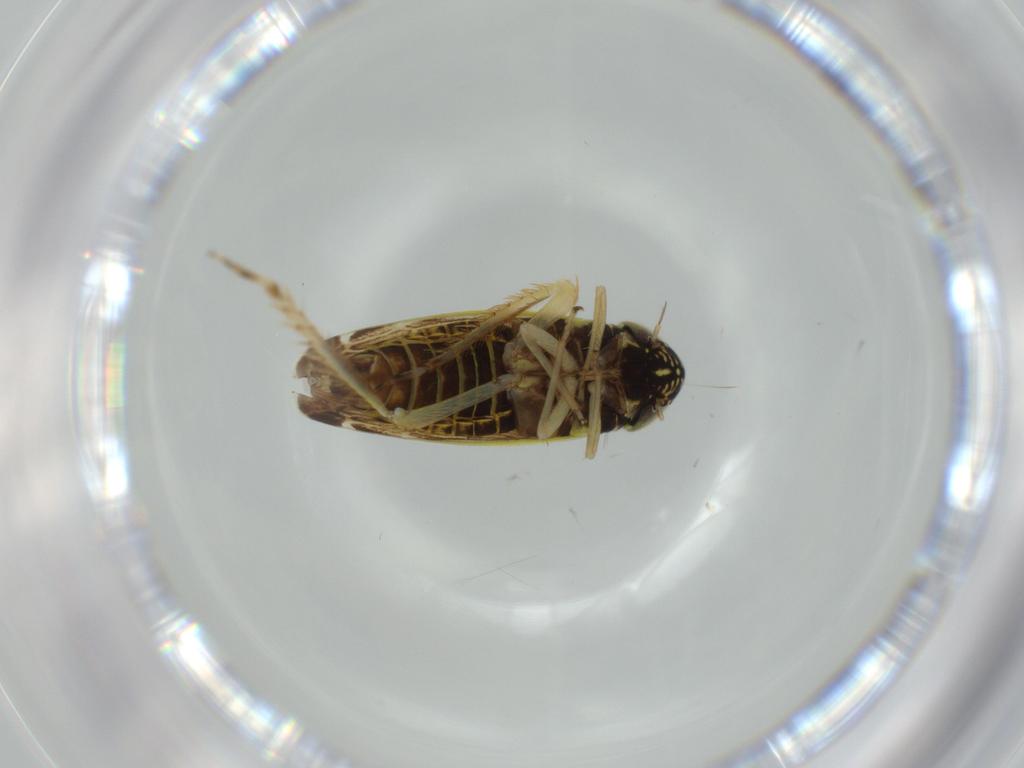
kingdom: Animalia
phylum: Arthropoda
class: Insecta
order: Hemiptera
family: Cicadellidae
